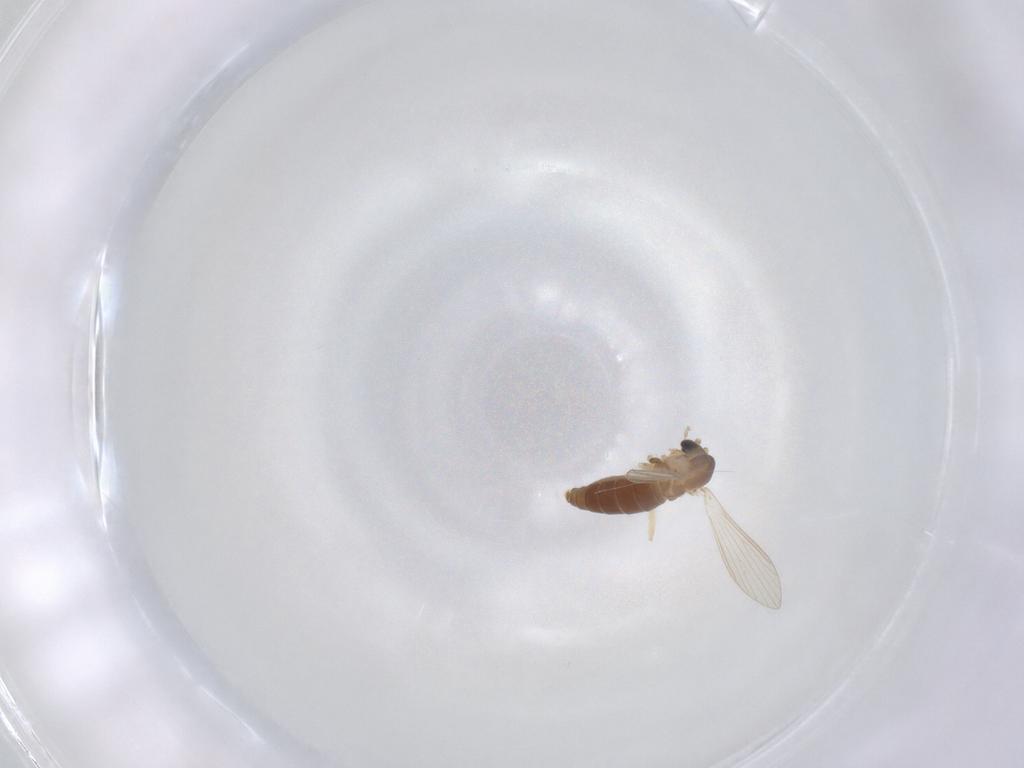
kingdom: Animalia
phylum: Arthropoda
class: Insecta
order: Diptera
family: Psychodidae
